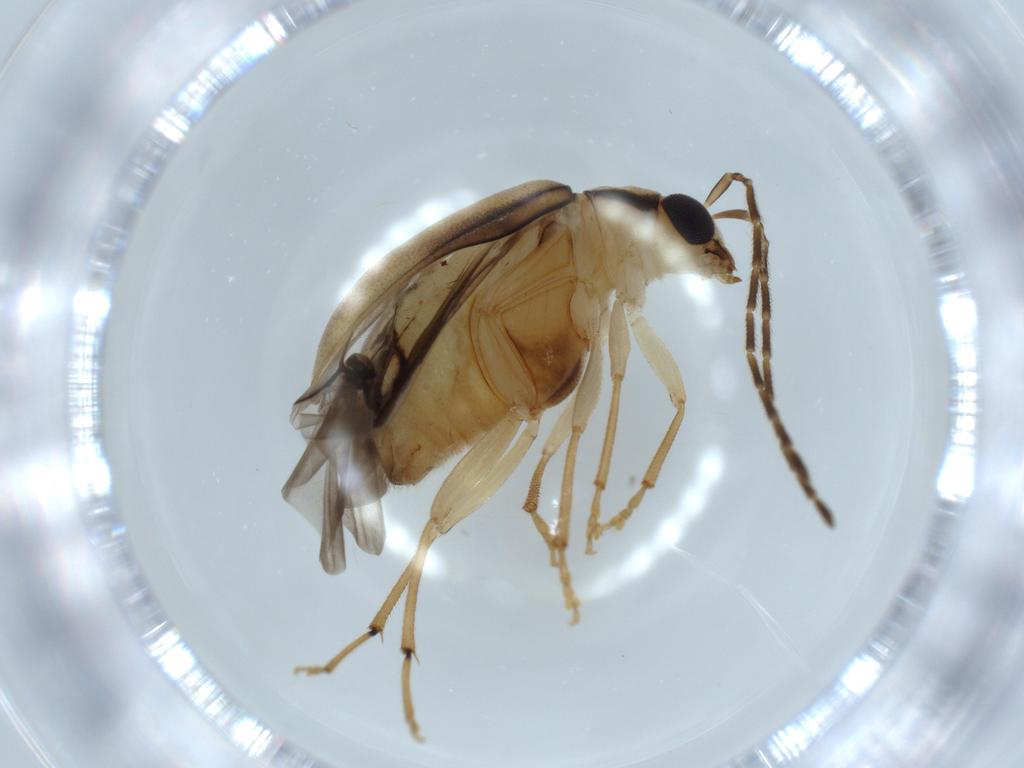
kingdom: Animalia
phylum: Arthropoda
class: Insecta
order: Coleoptera
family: Chrysomelidae
